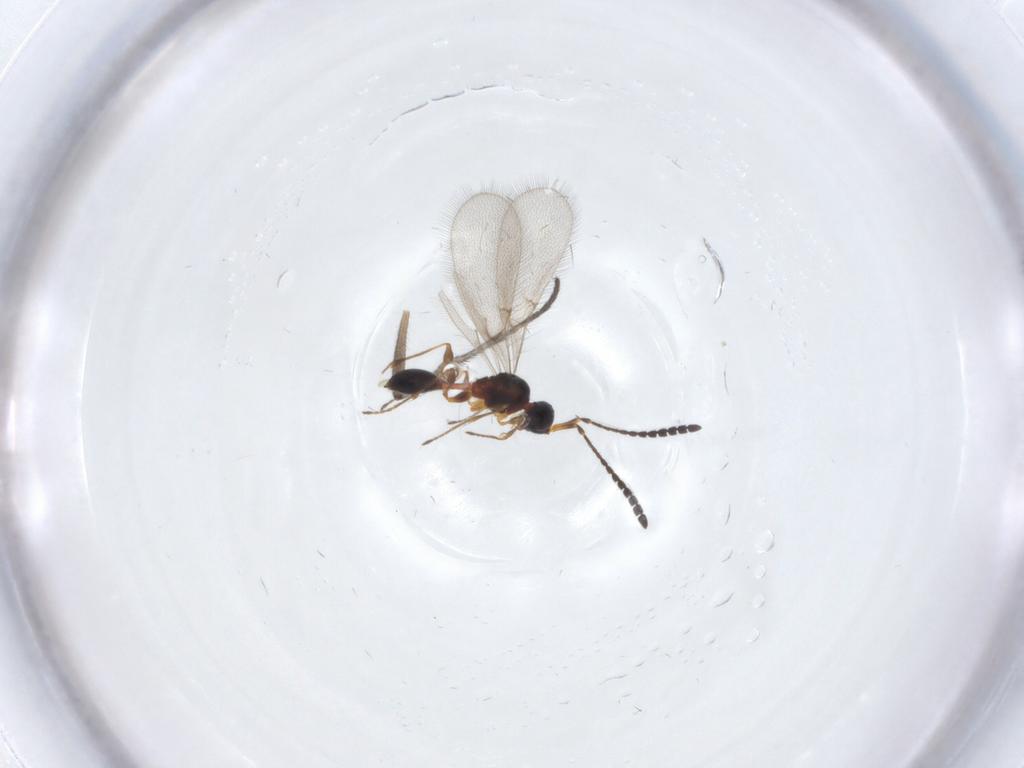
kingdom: Animalia
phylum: Arthropoda
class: Insecta
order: Hymenoptera
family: Diapriidae
